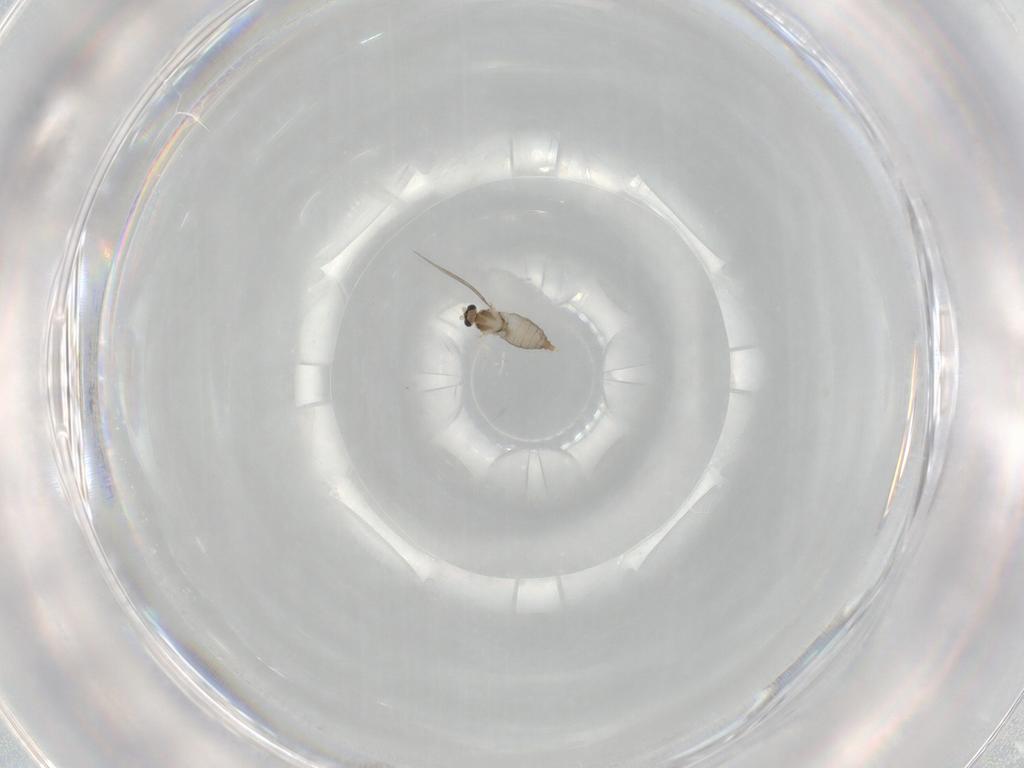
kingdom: Animalia
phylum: Arthropoda
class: Insecta
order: Diptera
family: Cecidomyiidae
